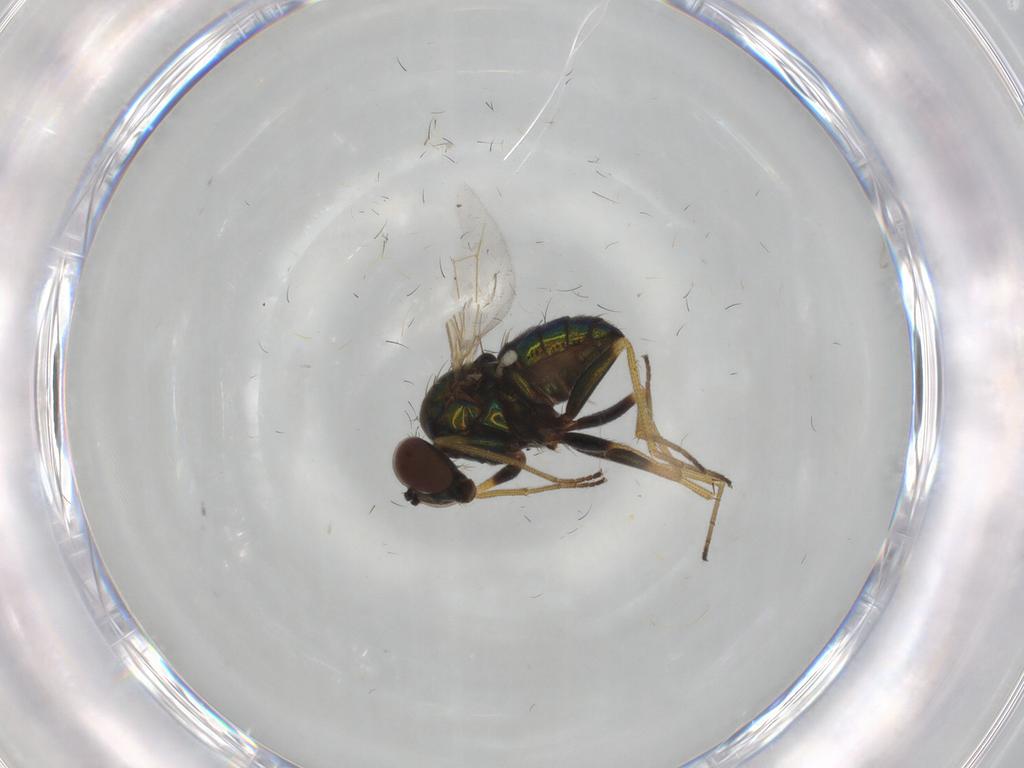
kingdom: Animalia
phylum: Arthropoda
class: Insecta
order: Diptera
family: Dolichopodidae
